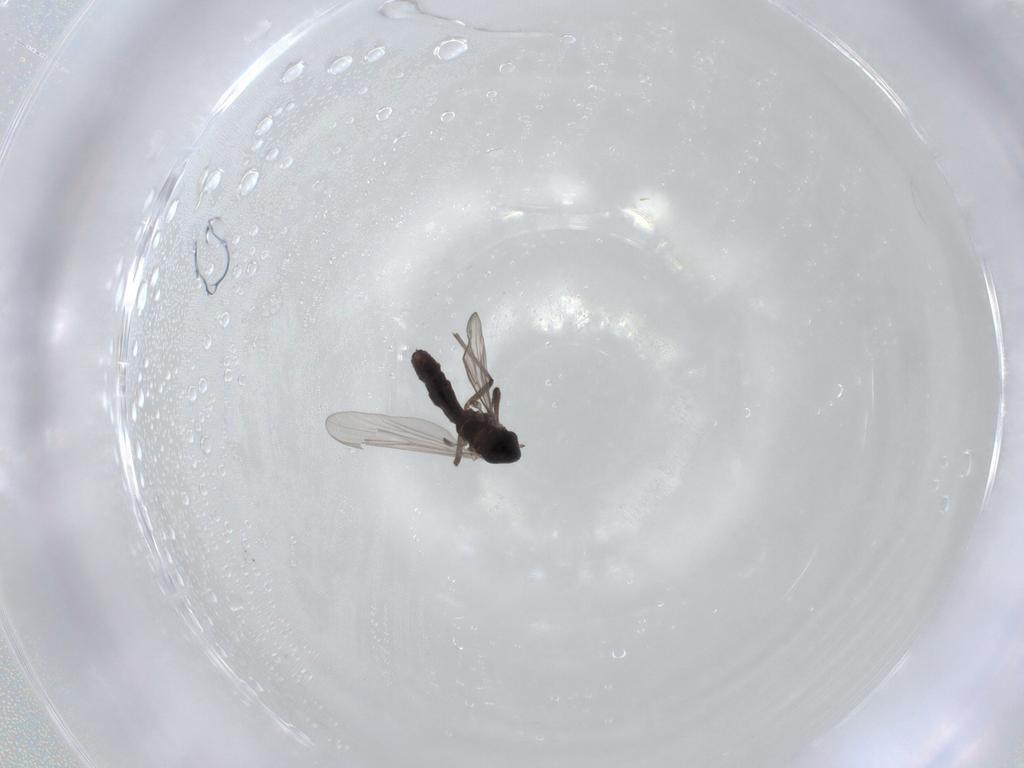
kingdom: Animalia
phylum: Arthropoda
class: Insecta
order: Diptera
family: Chironomidae
